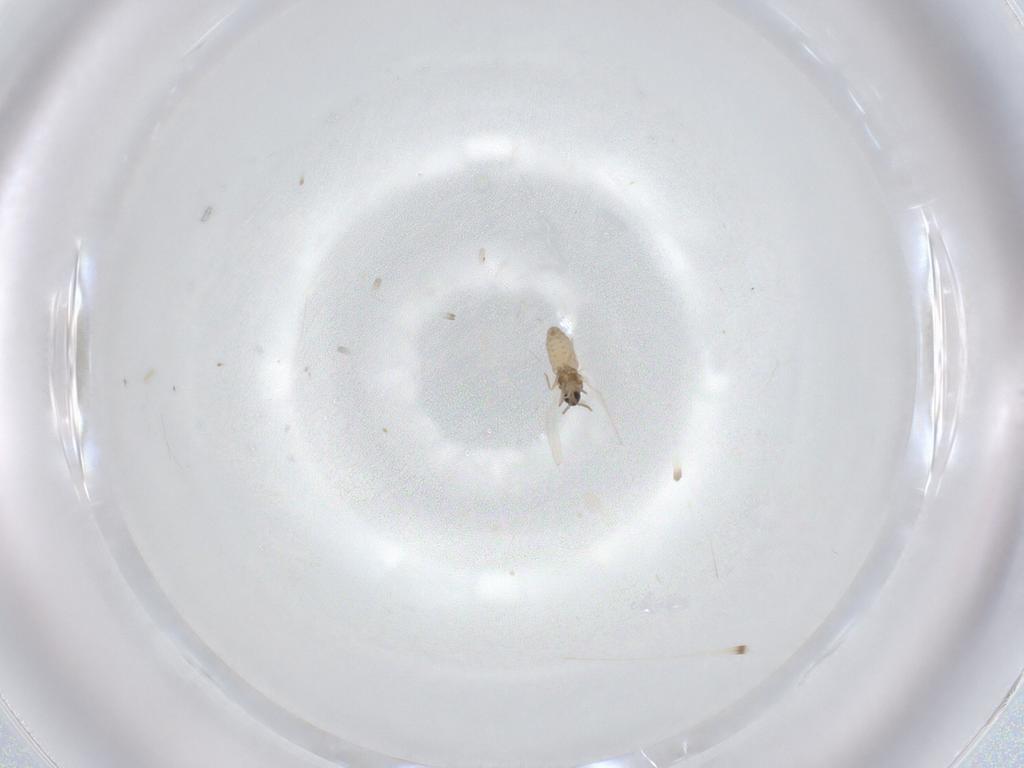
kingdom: Animalia
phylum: Arthropoda
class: Insecta
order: Diptera
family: Cecidomyiidae
